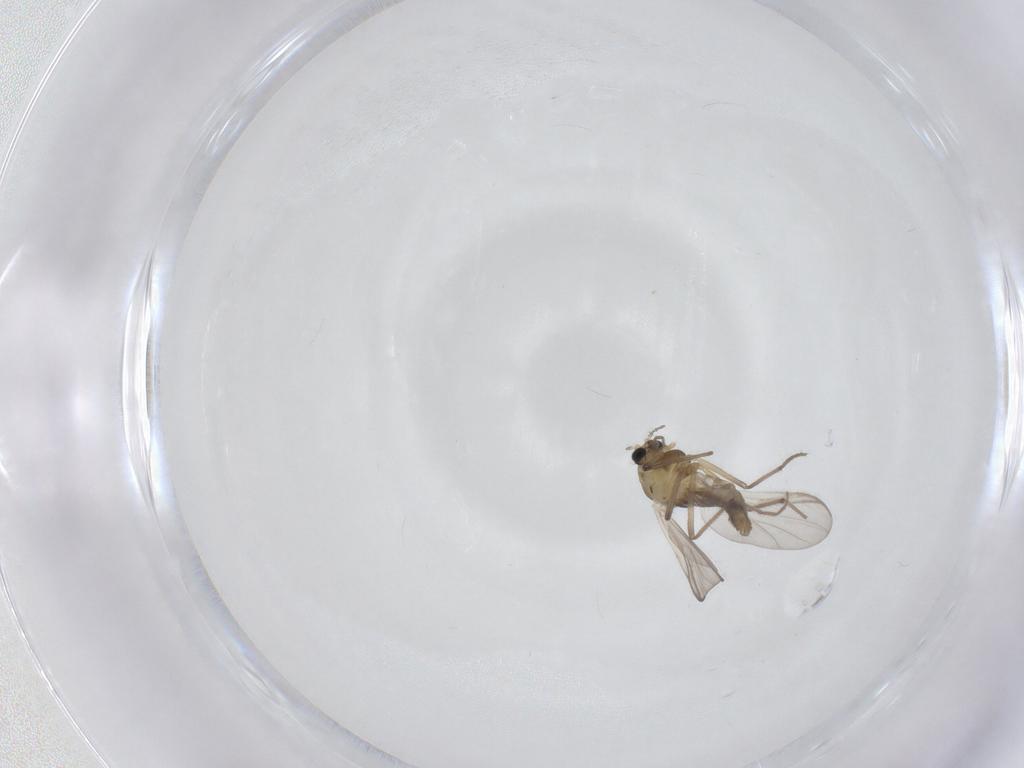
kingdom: Animalia
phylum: Arthropoda
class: Insecta
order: Diptera
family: Chironomidae
